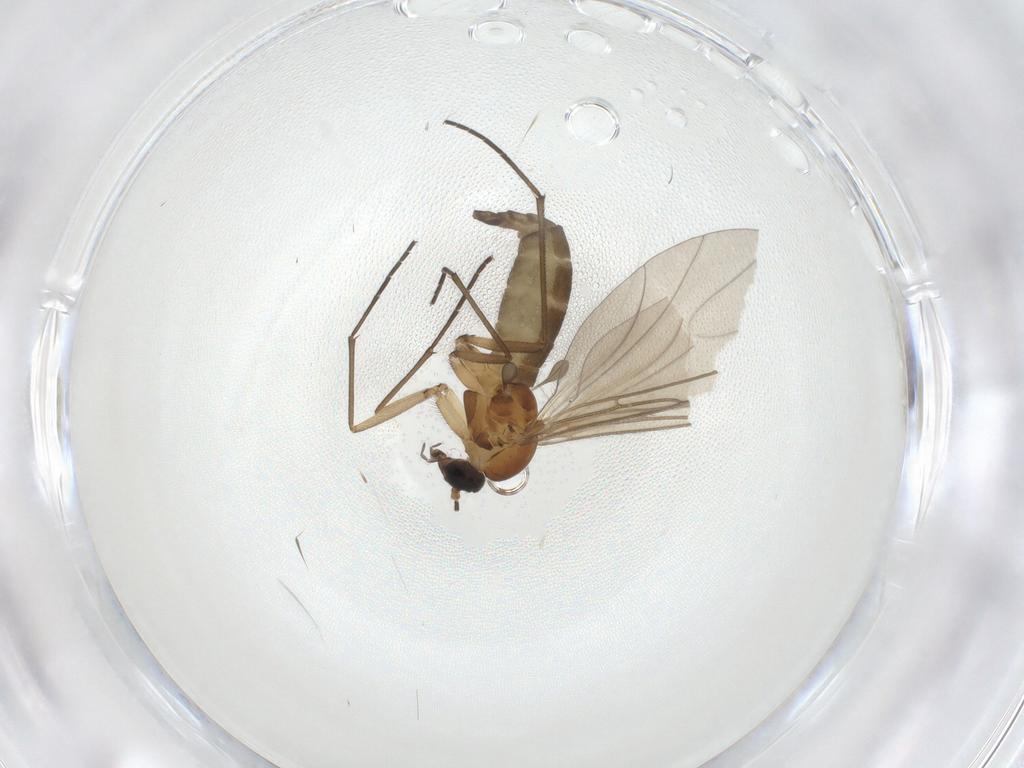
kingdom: Animalia
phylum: Arthropoda
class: Insecta
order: Diptera
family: Sciaridae
